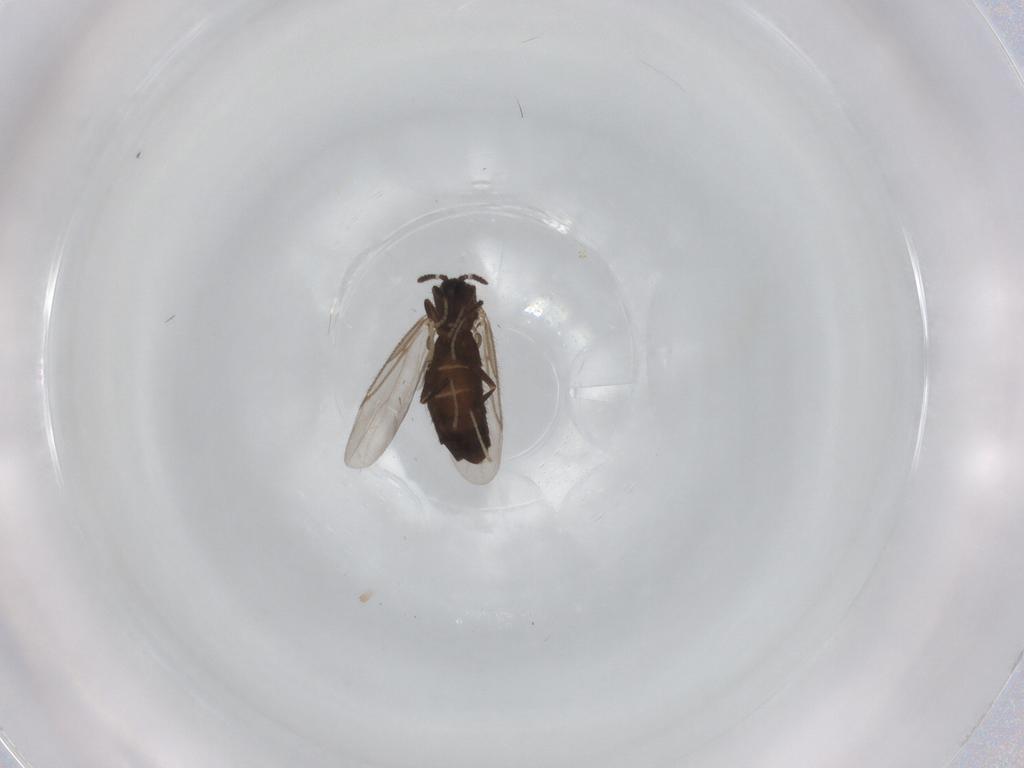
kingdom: Animalia
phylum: Arthropoda
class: Insecta
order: Diptera
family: Scatopsidae
